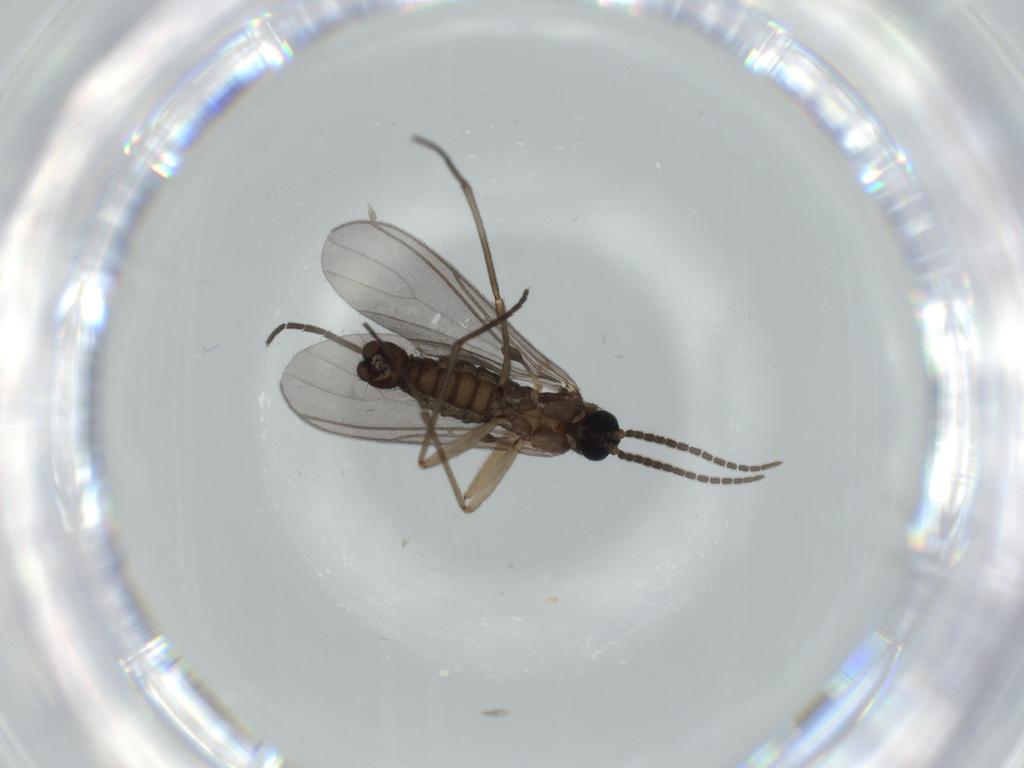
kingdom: Animalia
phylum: Arthropoda
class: Insecta
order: Diptera
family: Sciaridae
